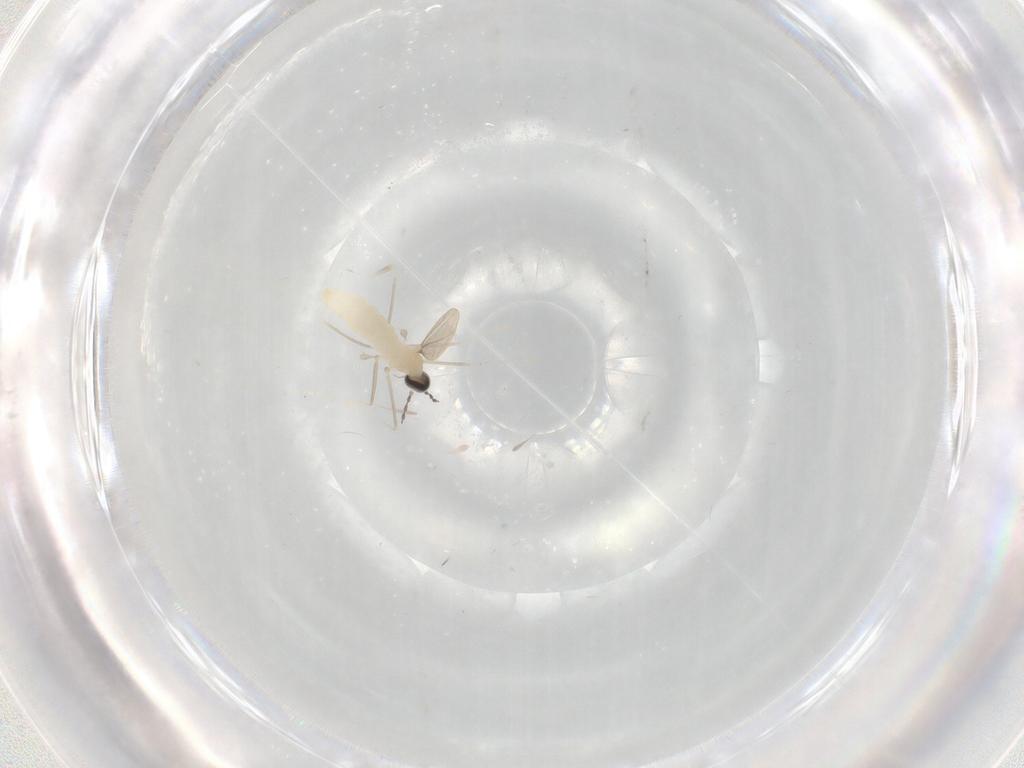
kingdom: Animalia
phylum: Arthropoda
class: Insecta
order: Diptera
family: Cecidomyiidae
